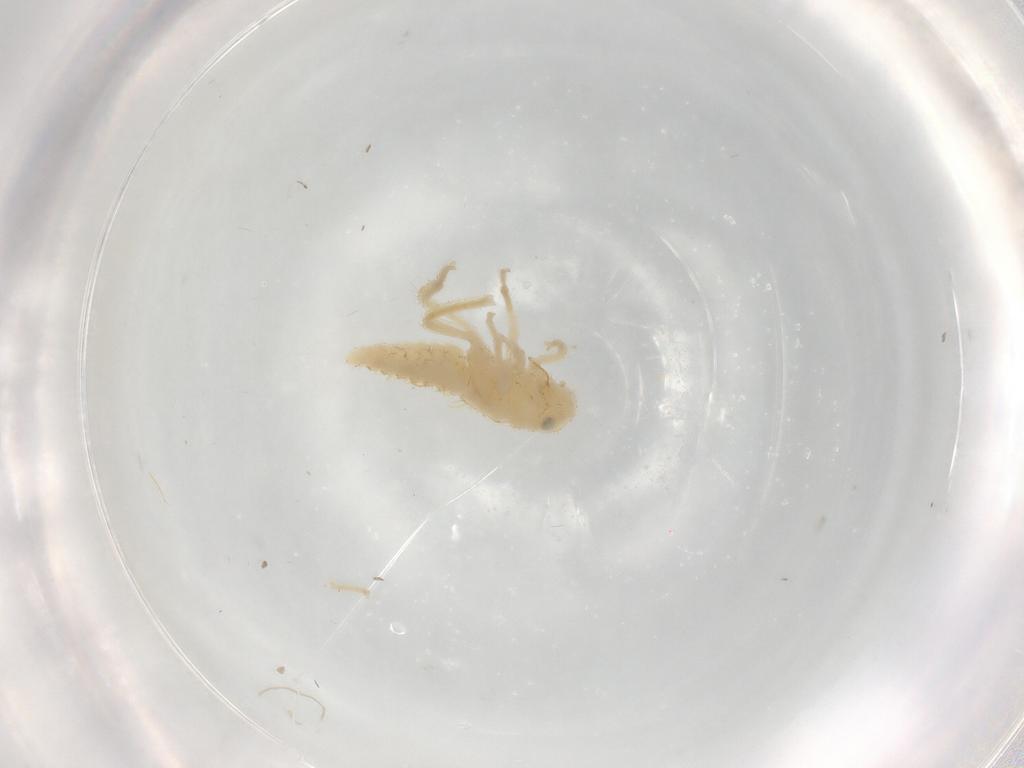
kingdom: Animalia
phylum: Arthropoda
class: Insecta
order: Hemiptera
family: Cicadellidae
